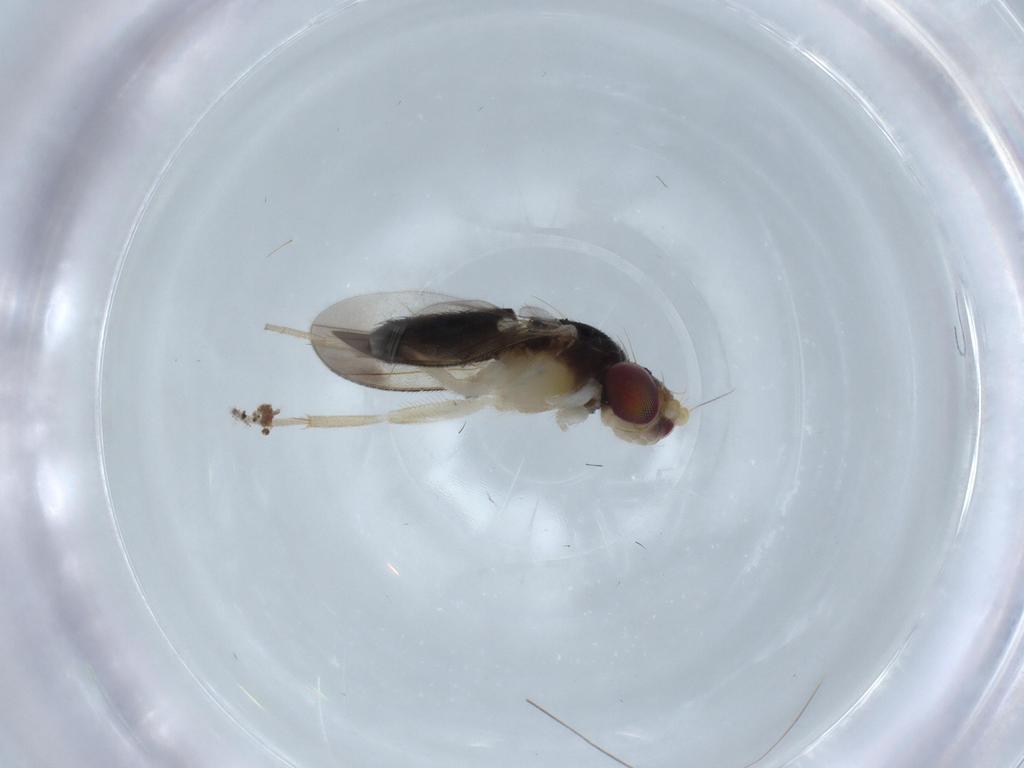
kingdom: Animalia
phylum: Arthropoda
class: Insecta
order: Diptera
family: Clusiidae
